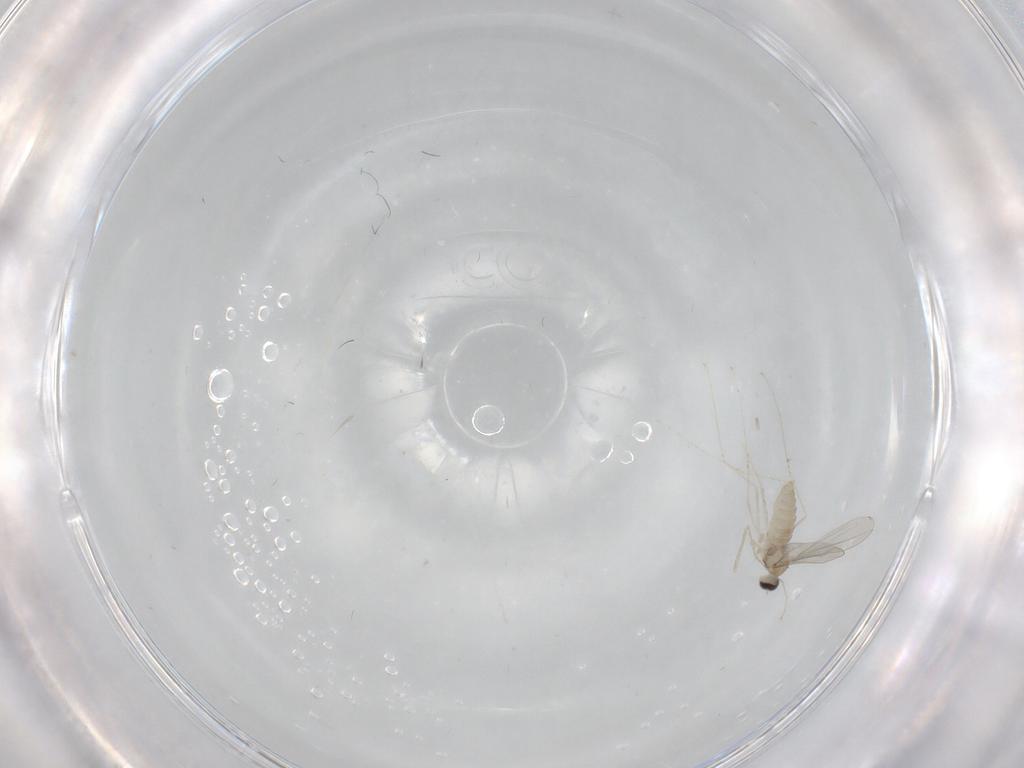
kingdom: Animalia
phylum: Arthropoda
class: Insecta
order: Diptera
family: Cecidomyiidae
